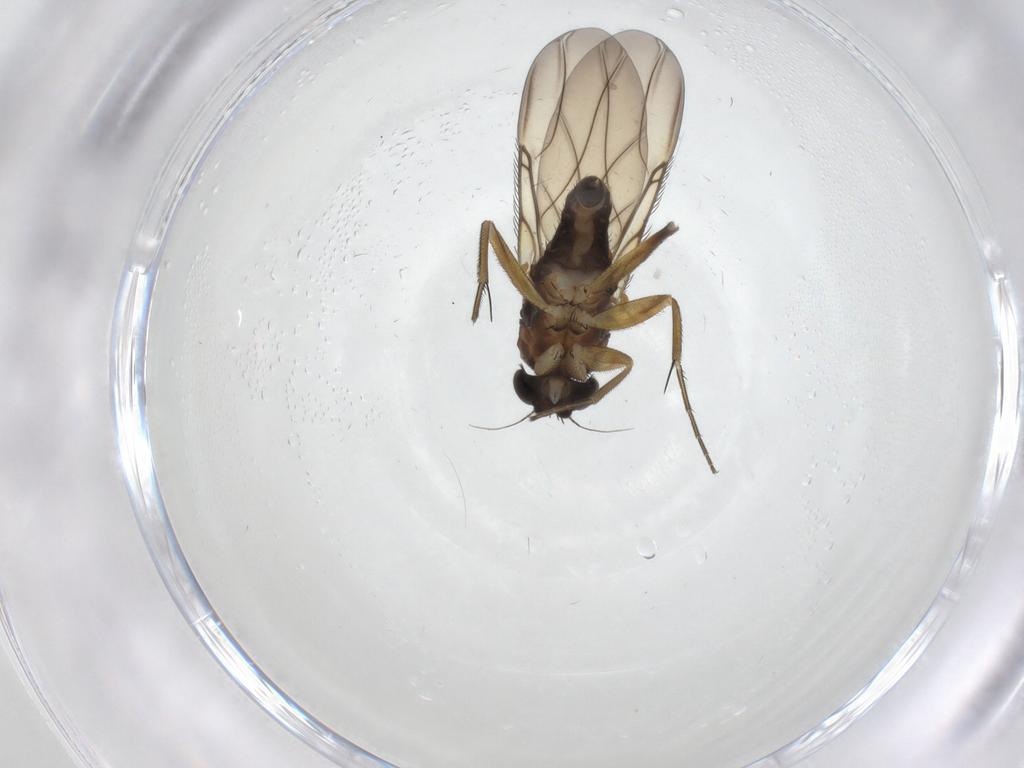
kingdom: Animalia
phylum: Arthropoda
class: Insecta
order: Diptera
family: Phoridae
